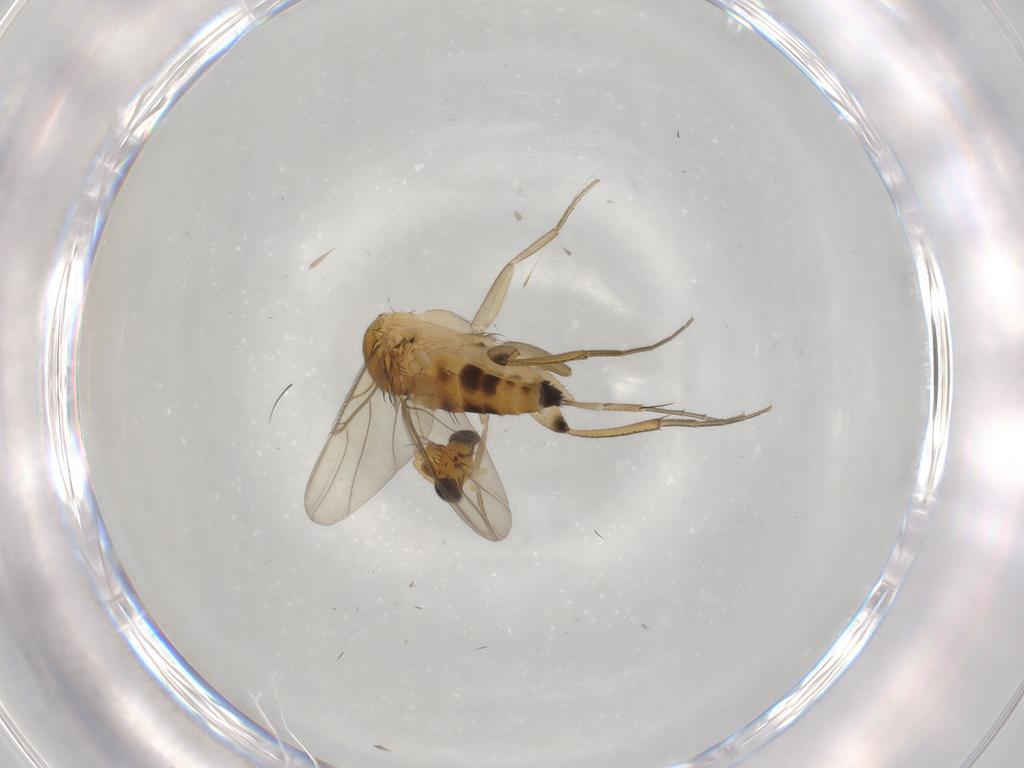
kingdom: Animalia
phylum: Arthropoda
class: Insecta
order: Diptera
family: Phoridae
